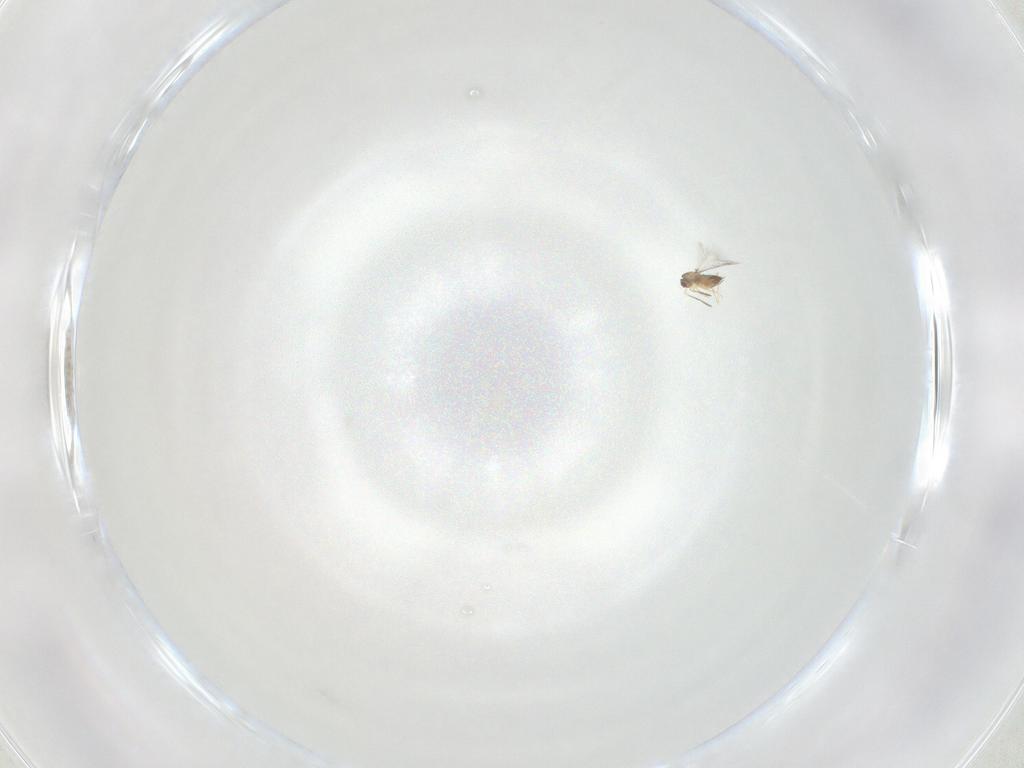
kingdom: Animalia
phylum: Arthropoda
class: Insecta
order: Hymenoptera
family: Mymaridae
